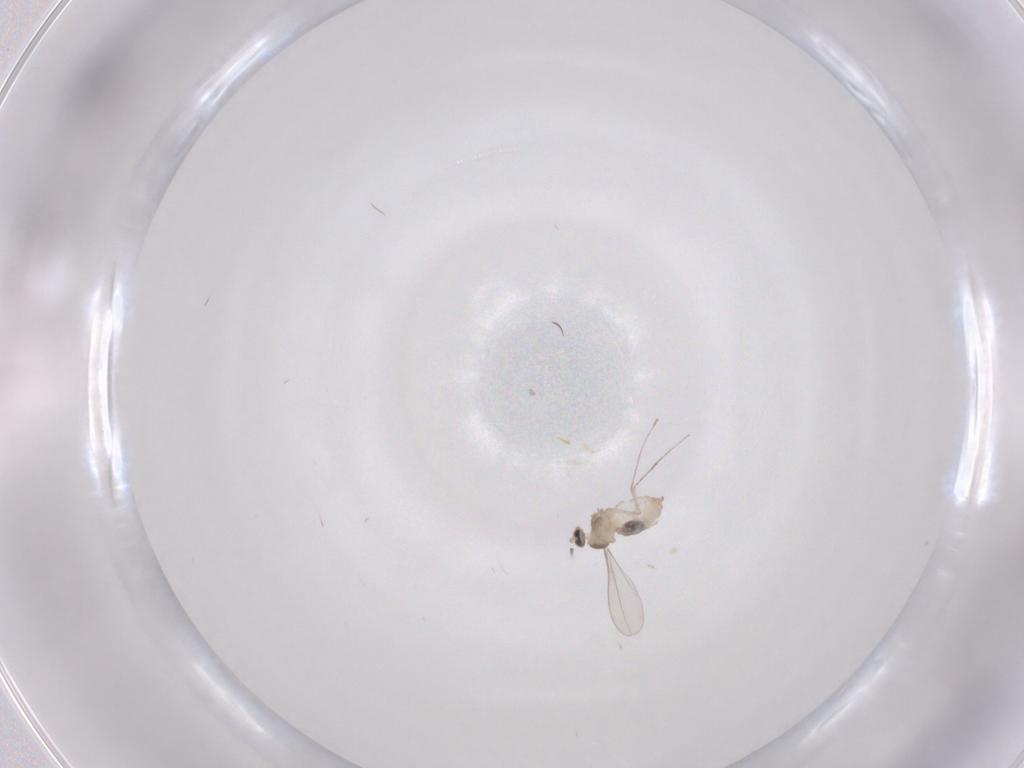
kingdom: Animalia
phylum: Arthropoda
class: Insecta
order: Diptera
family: Cecidomyiidae
